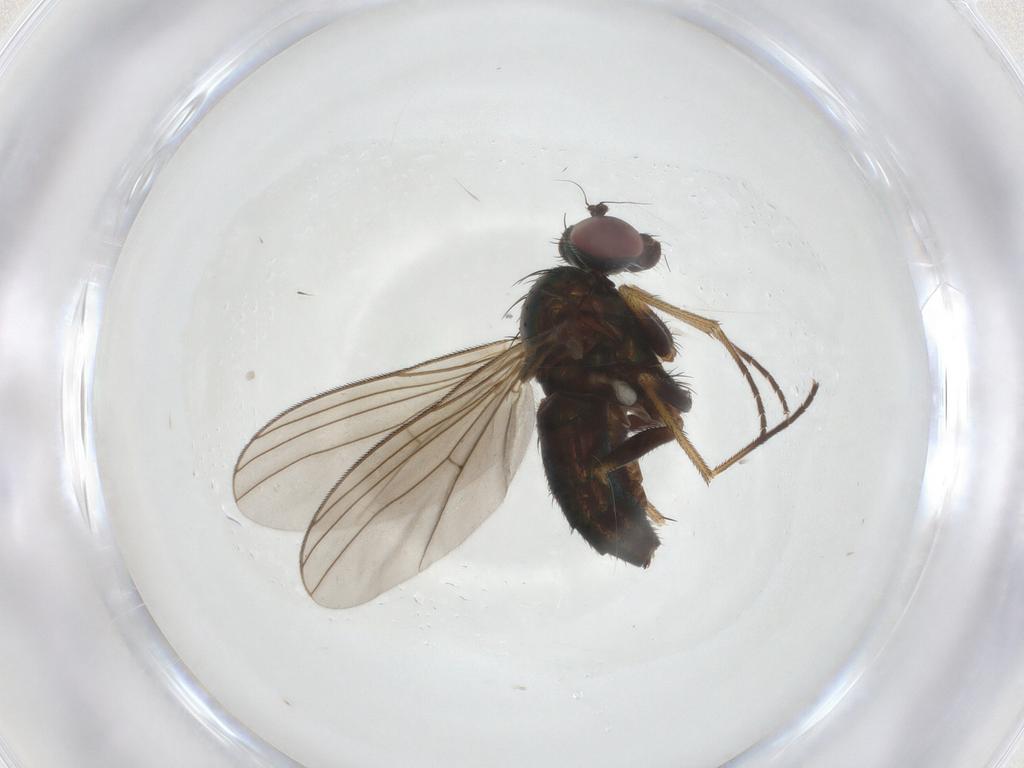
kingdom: Animalia
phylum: Arthropoda
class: Insecta
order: Diptera
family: Dolichopodidae
